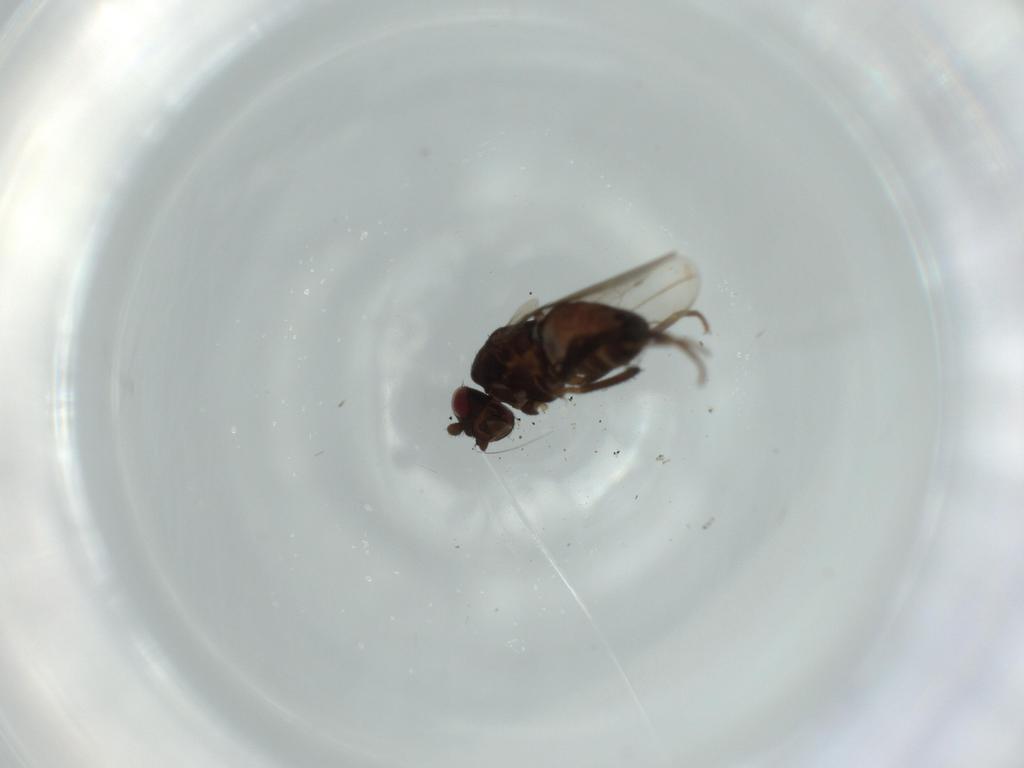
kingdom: Animalia
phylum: Arthropoda
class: Insecta
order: Diptera
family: Sphaeroceridae
